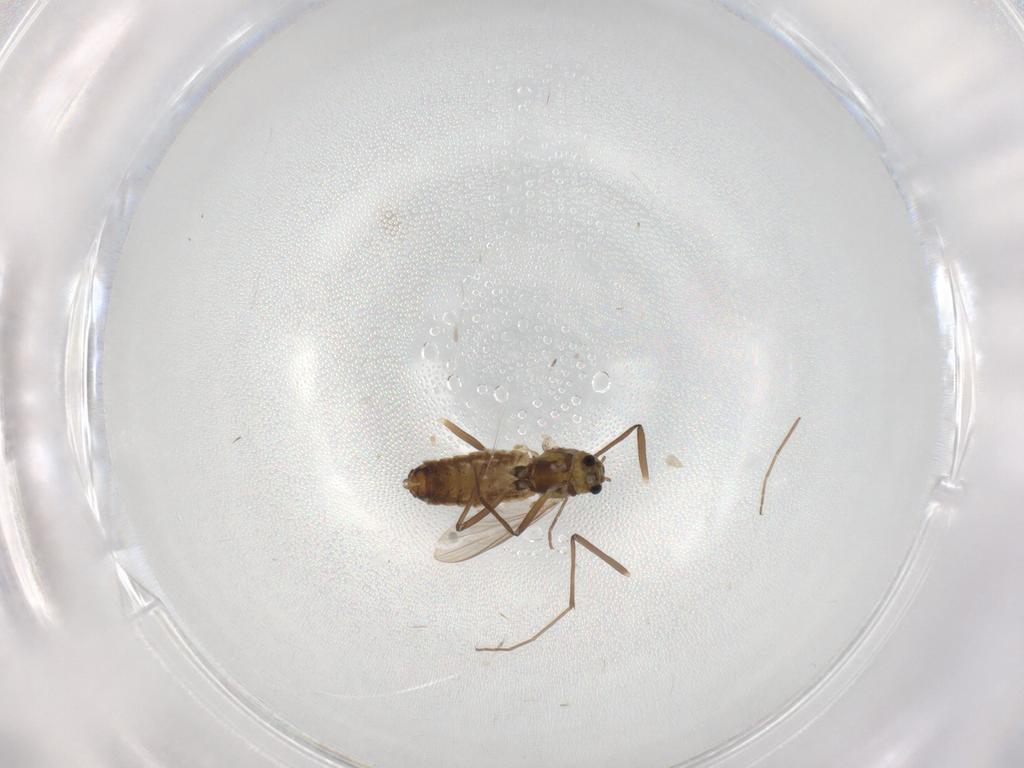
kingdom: Animalia
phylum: Arthropoda
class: Insecta
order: Diptera
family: Chironomidae
